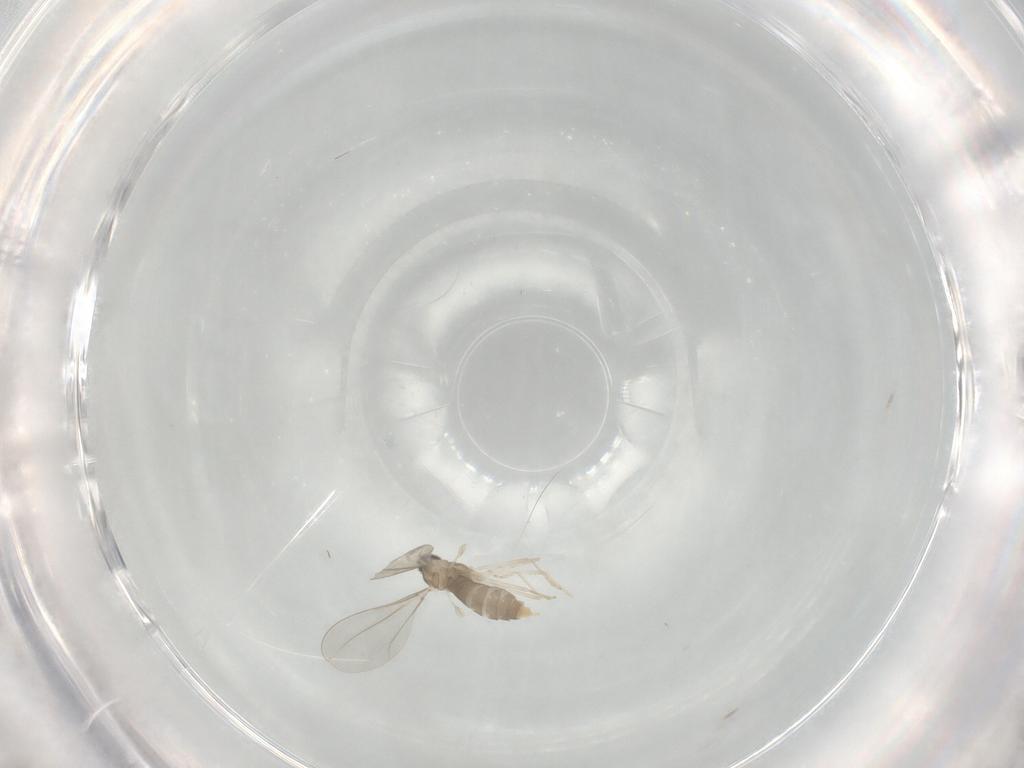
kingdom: Animalia
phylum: Arthropoda
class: Insecta
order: Diptera
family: Cecidomyiidae
